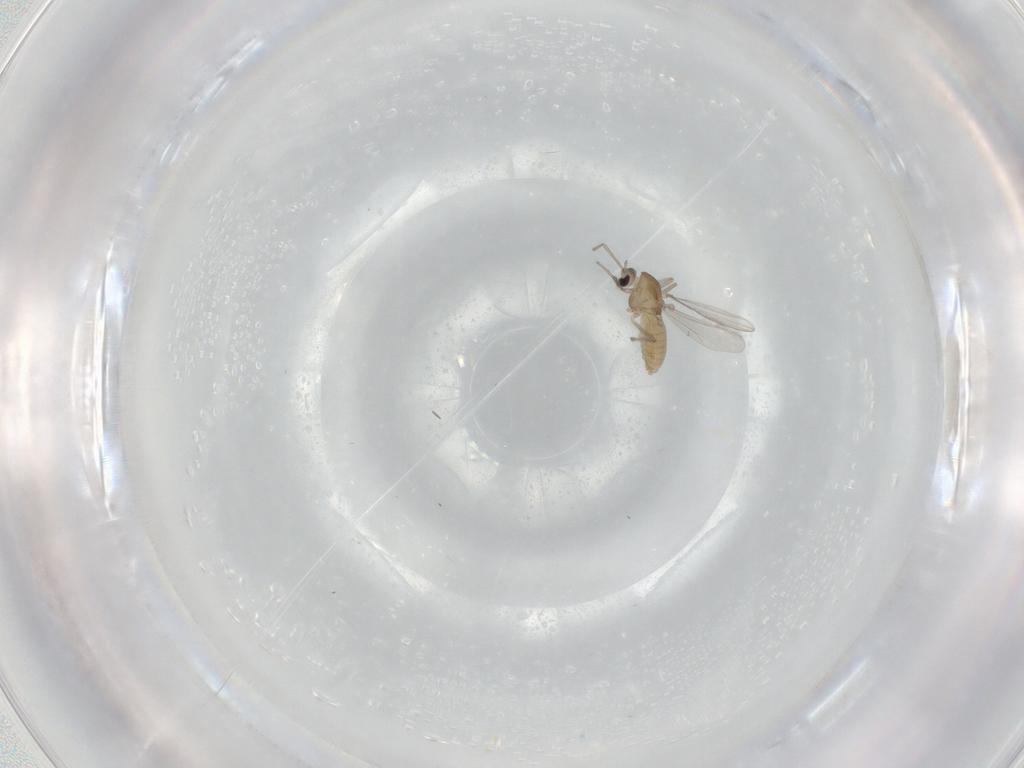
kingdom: Animalia
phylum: Arthropoda
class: Insecta
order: Diptera
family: Chironomidae
